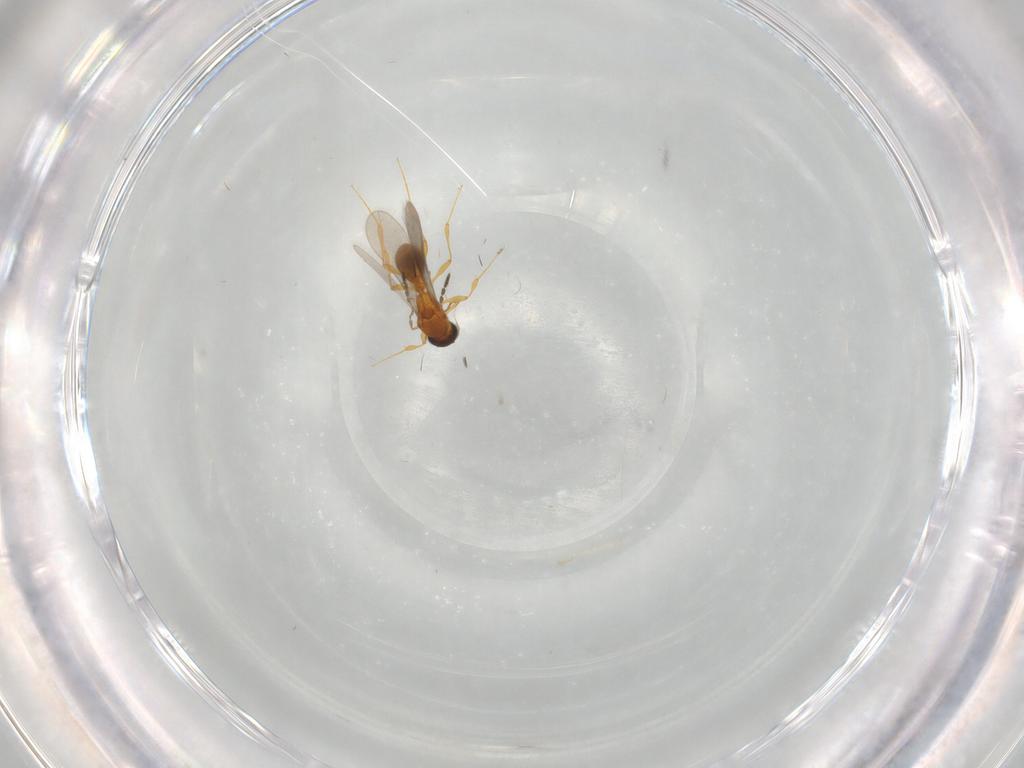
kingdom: Animalia
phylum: Arthropoda
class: Insecta
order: Hymenoptera
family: Platygastridae
